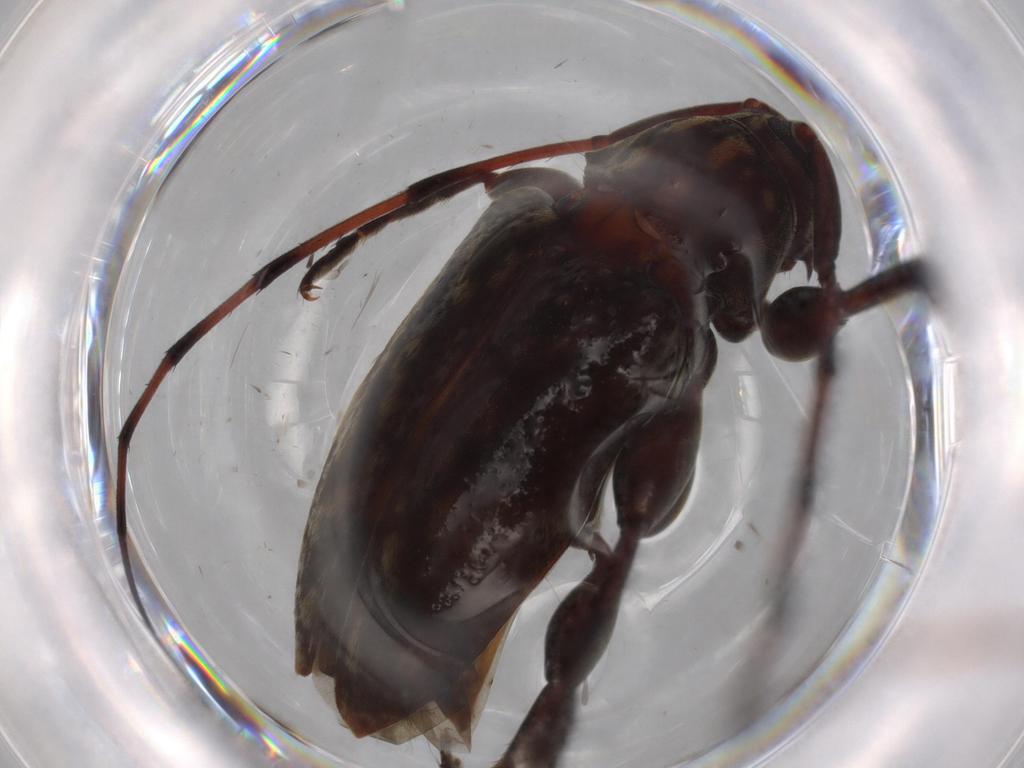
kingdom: Animalia
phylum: Arthropoda
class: Insecta
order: Coleoptera
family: Cerambycidae
